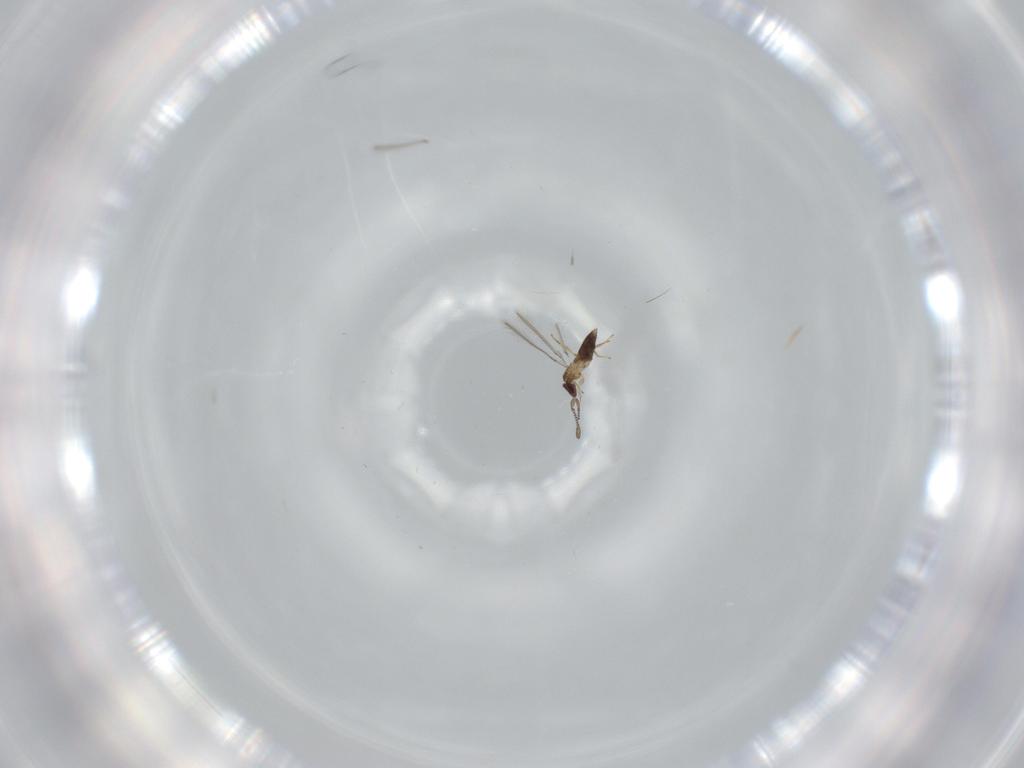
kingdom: Animalia
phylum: Arthropoda
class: Insecta
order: Hymenoptera
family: Mymaridae
